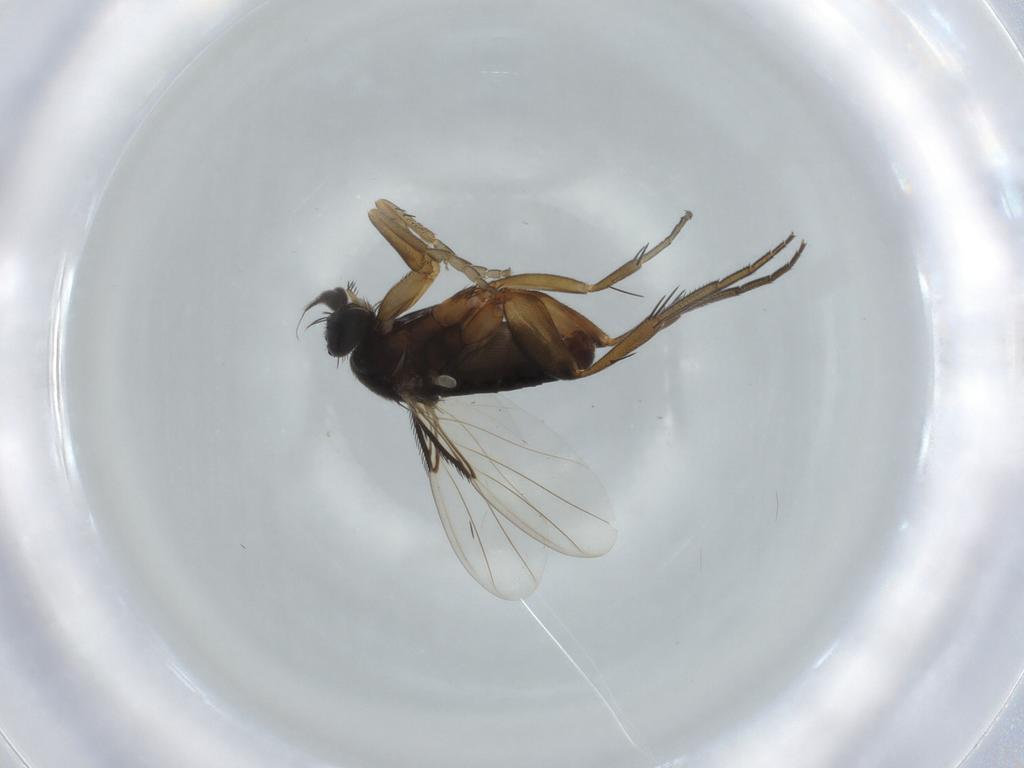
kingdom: Animalia
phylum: Arthropoda
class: Insecta
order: Diptera
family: Phoridae
